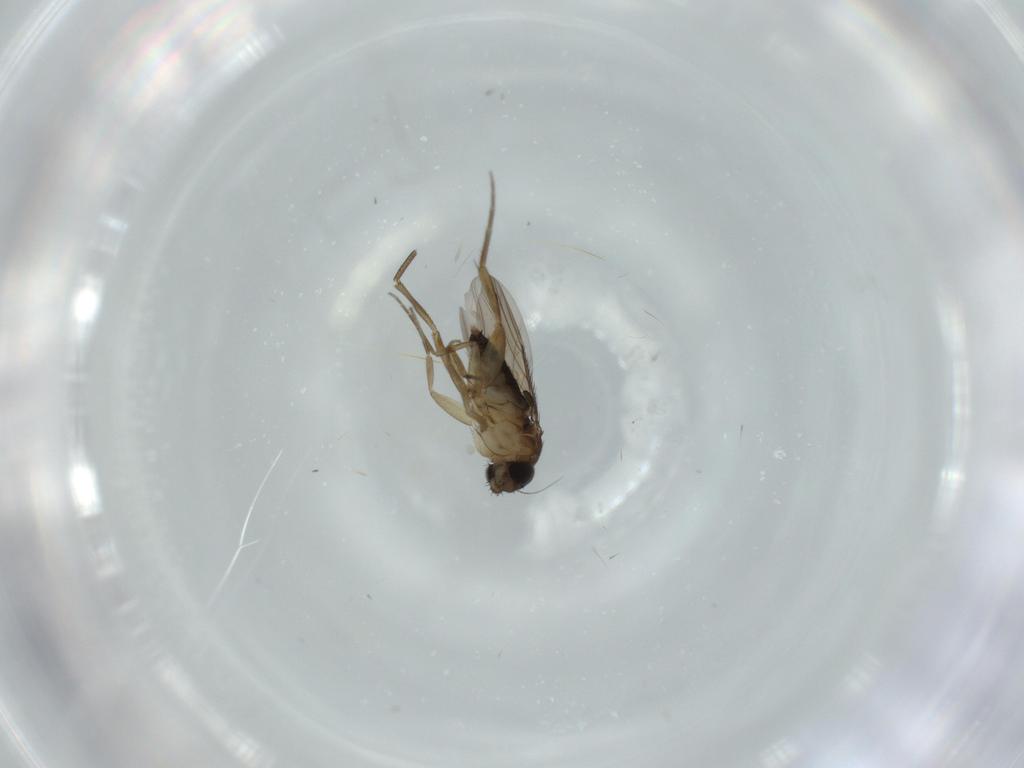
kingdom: Animalia
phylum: Arthropoda
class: Insecta
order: Diptera
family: Phoridae
